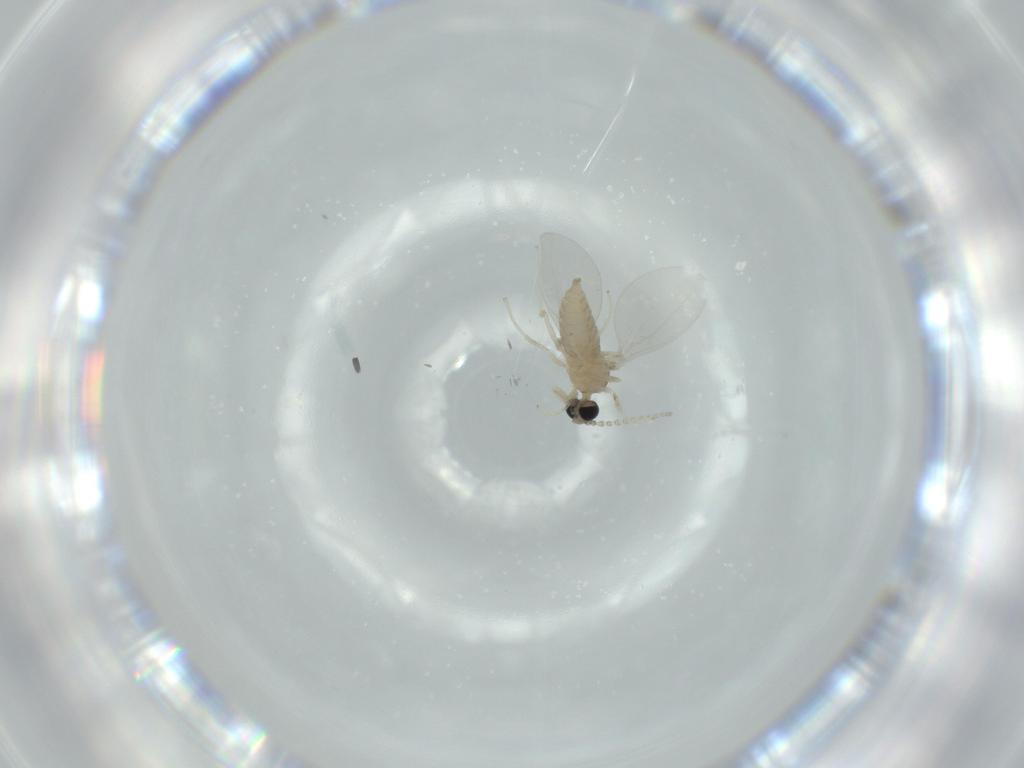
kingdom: Animalia
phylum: Arthropoda
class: Insecta
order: Diptera
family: Cecidomyiidae
